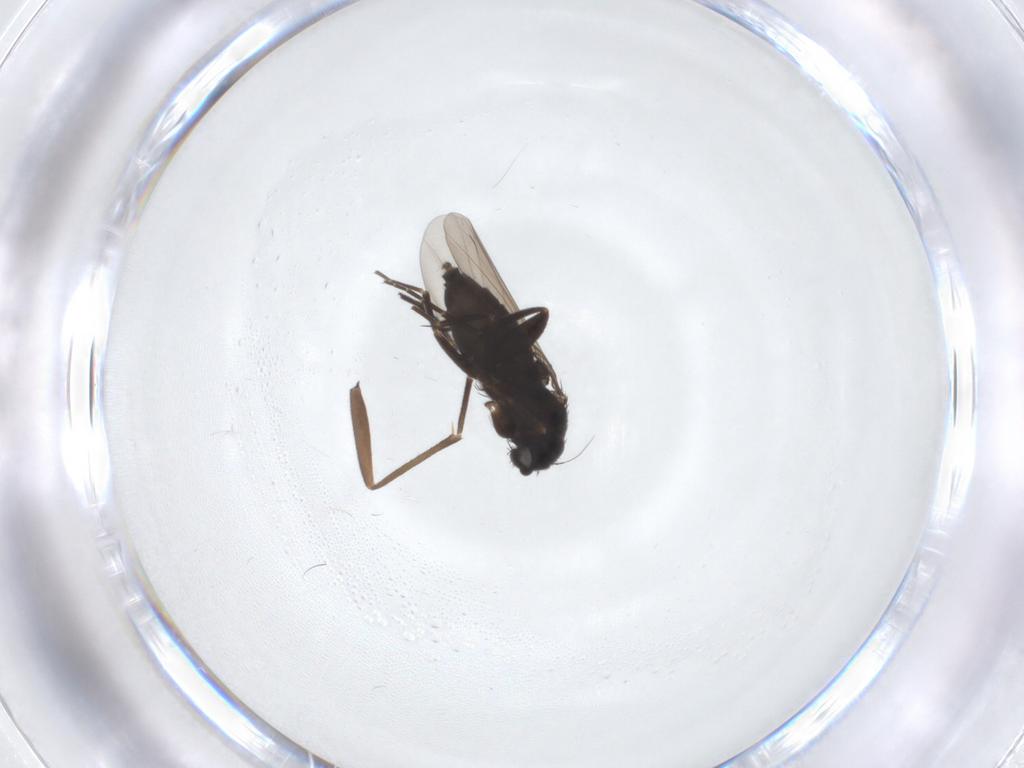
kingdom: Animalia
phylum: Arthropoda
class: Insecta
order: Diptera
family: Phoridae
